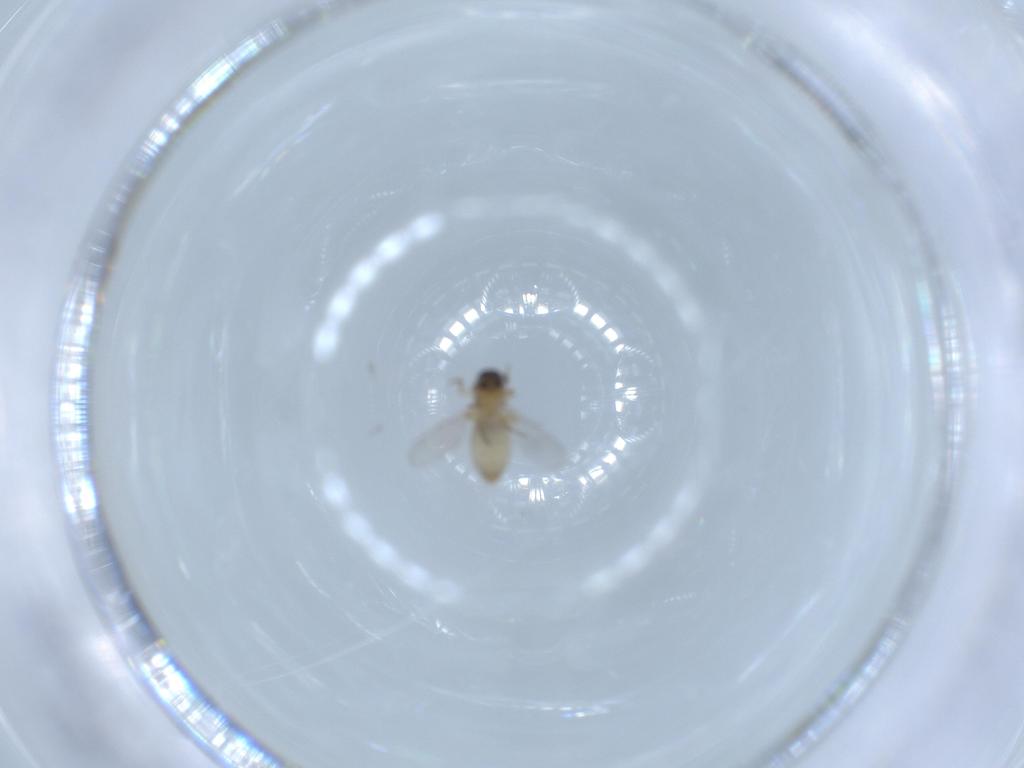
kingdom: Animalia
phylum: Arthropoda
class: Insecta
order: Diptera
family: Ceratopogonidae
